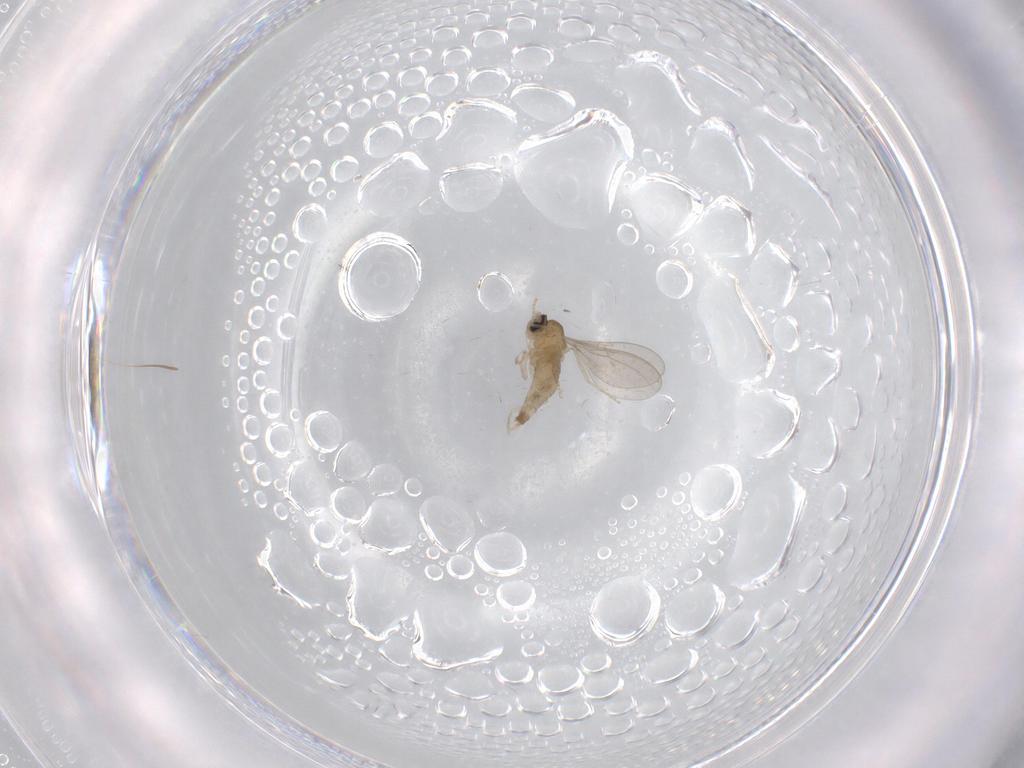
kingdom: Animalia
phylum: Arthropoda
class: Insecta
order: Diptera
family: Cecidomyiidae
